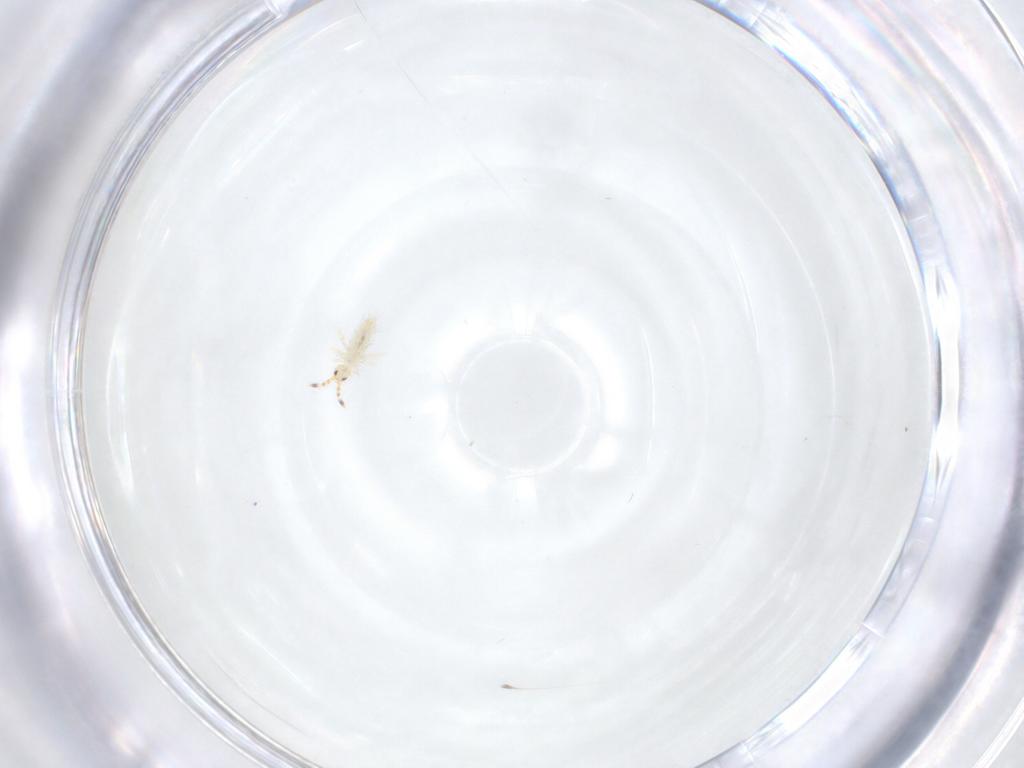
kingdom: Animalia
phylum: Arthropoda
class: Collembola
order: Entomobryomorpha
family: Entomobryidae
